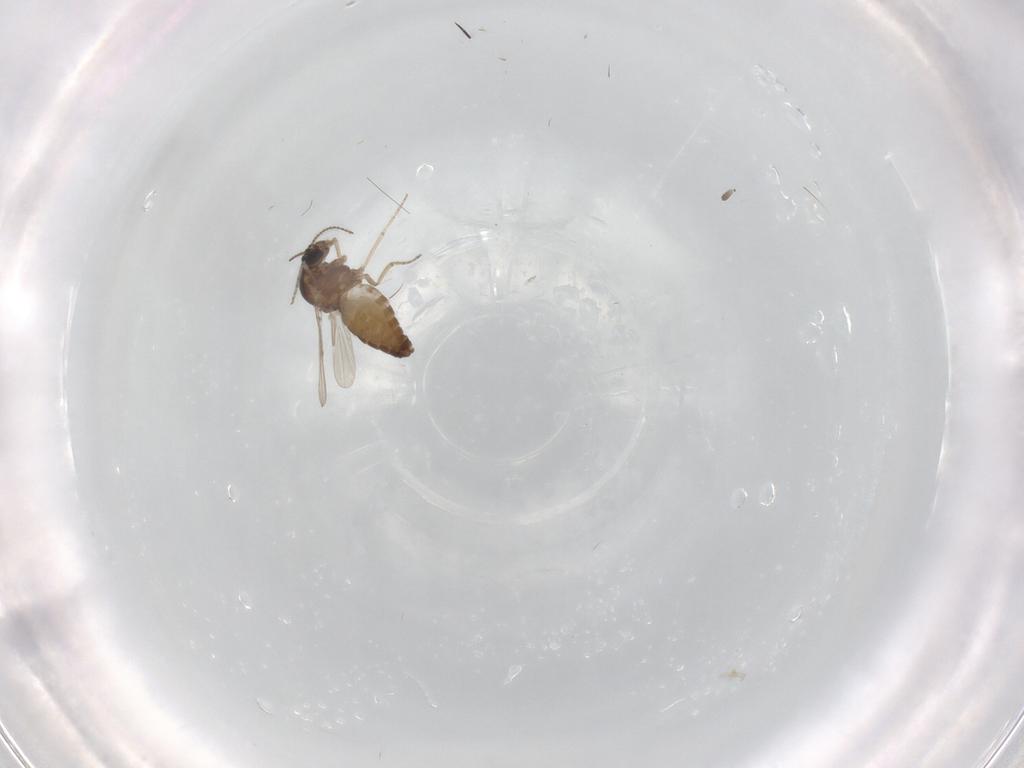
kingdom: Animalia
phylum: Arthropoda
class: Insecta
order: Diptera
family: Ceratopogonidae
